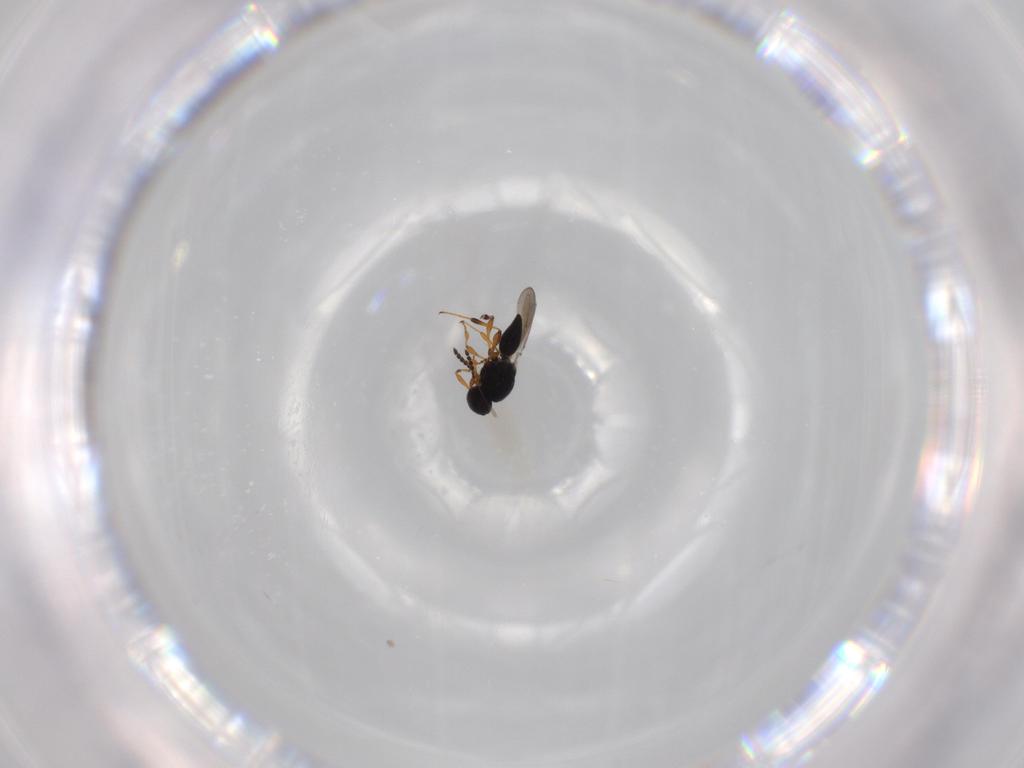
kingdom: Animalia
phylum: Arthropoda
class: Insecta
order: Hymenoptera
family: Platygastridae
